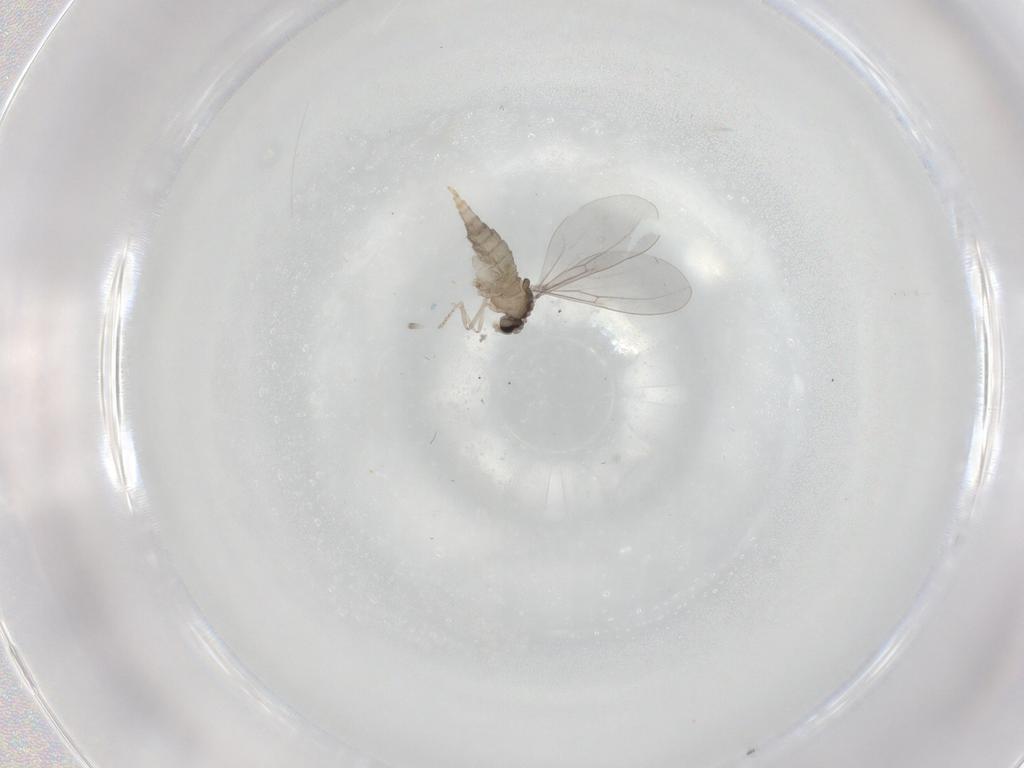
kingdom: Animalia
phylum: Arthropoda
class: Insecta
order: Diptera
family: Cecidomyiidae
